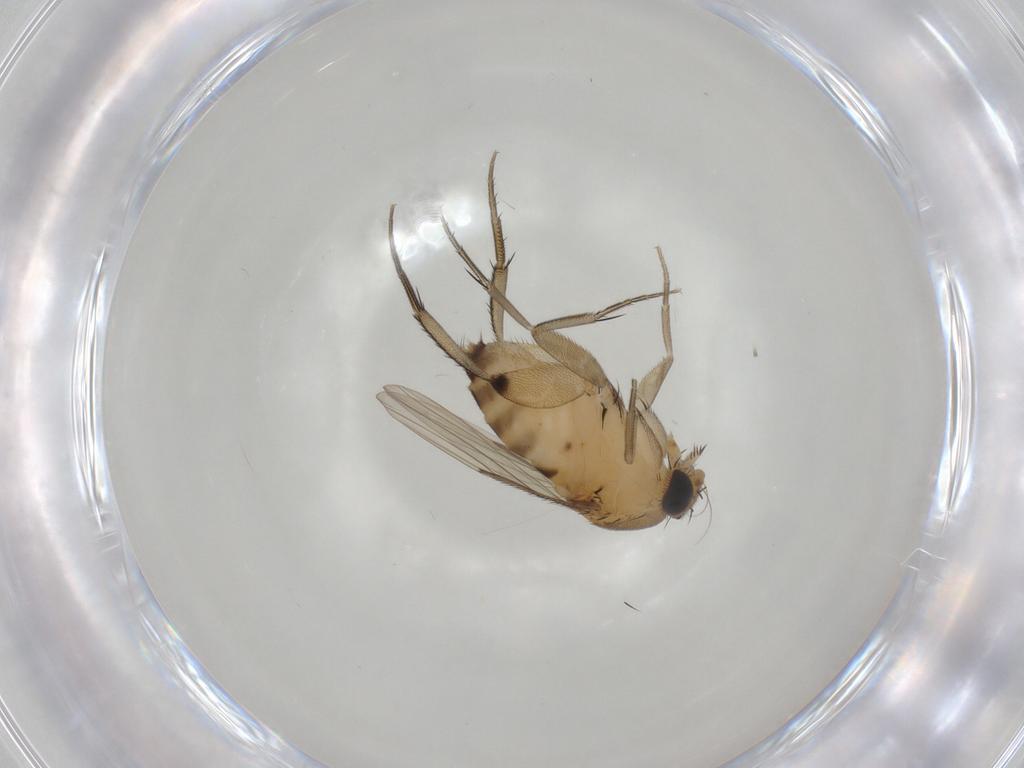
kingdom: Animalia
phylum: Arthropoda
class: Insecta
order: Diptera
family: Phoridae
